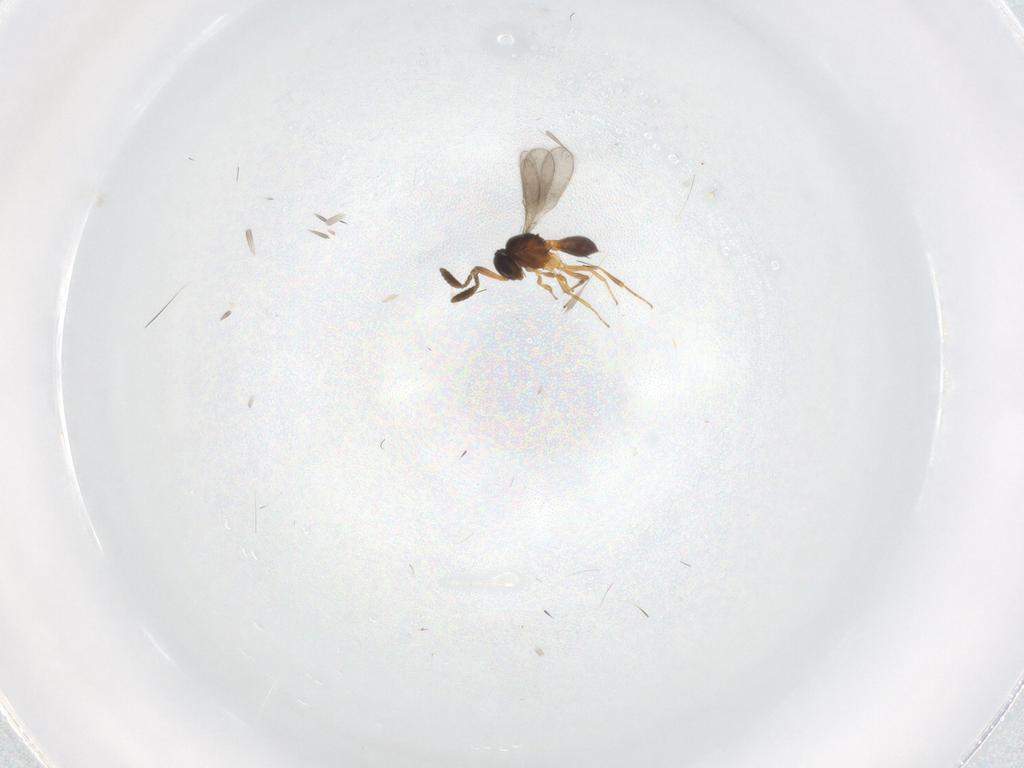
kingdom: Animalia
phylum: Arthropoda
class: Insecta
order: Hymenoptera
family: Scelionidae
